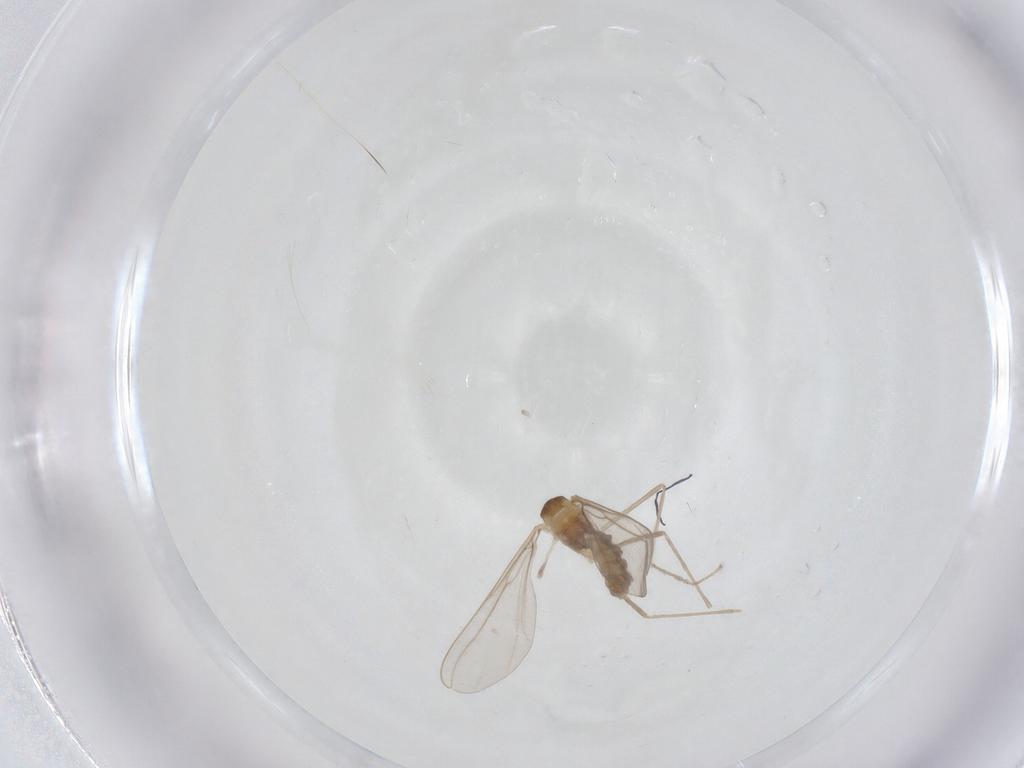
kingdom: Animalia
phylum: Arthropoda
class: Insecta
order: Diptera
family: Cecidomyiidae
